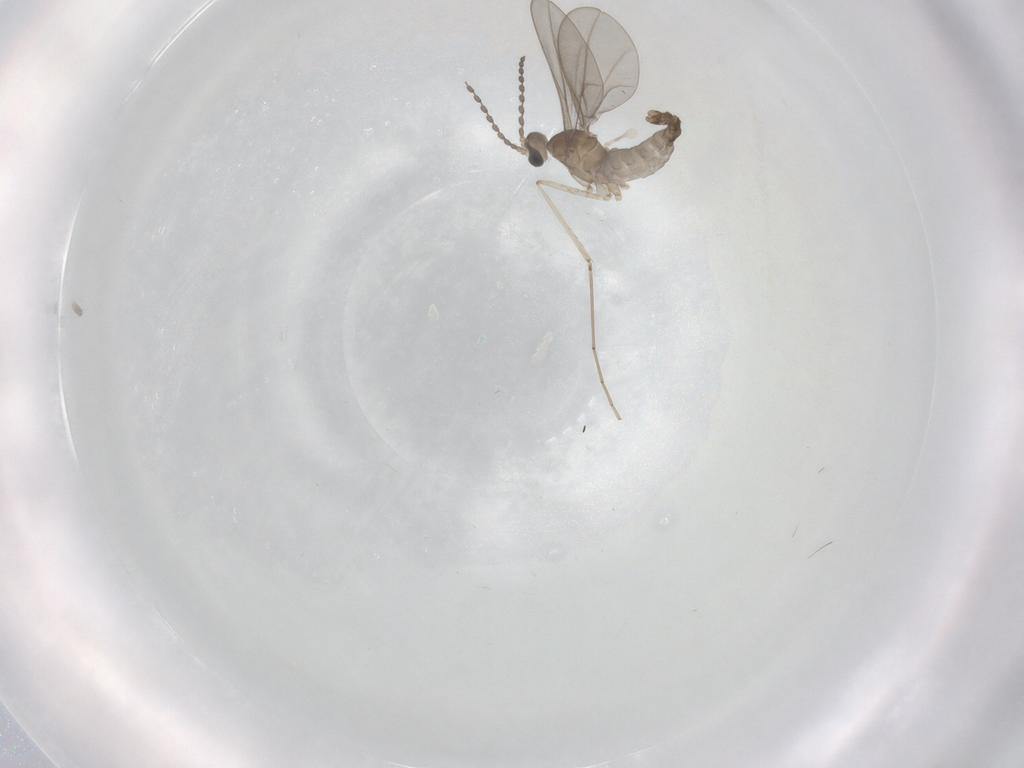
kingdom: Animalia
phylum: Arthropoda
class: Insecta
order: Diptera
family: Cecidomyiidae
